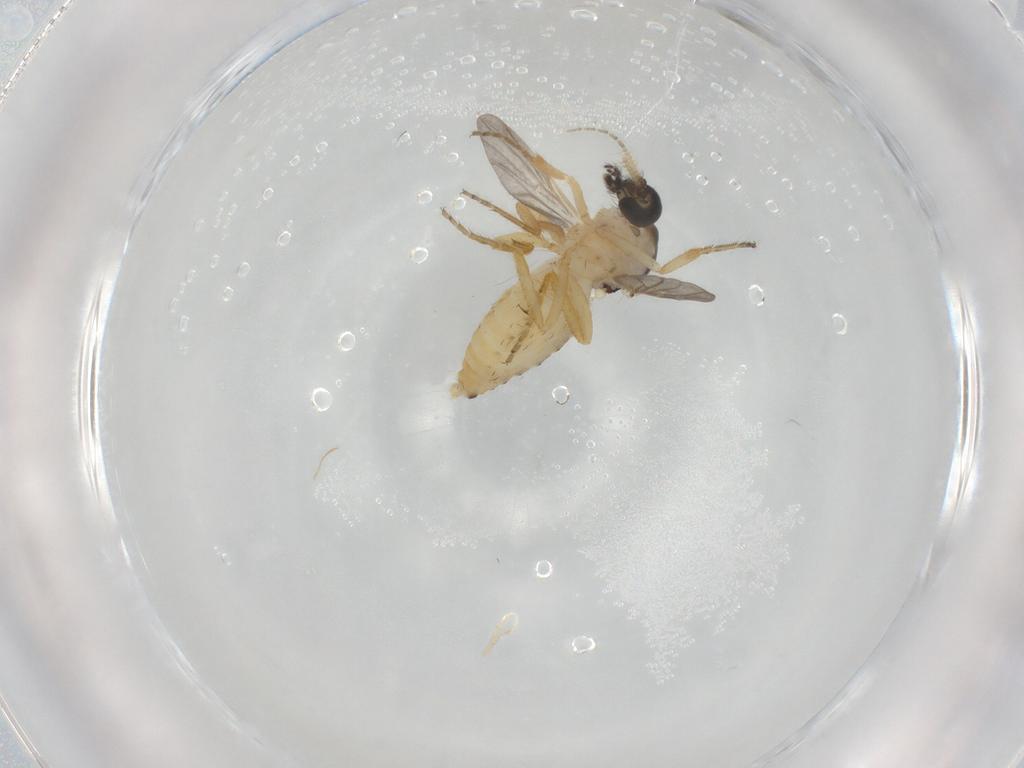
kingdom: Animalia
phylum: Arthropoda
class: Insecta
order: Diptera
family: Ceratopogonidae
